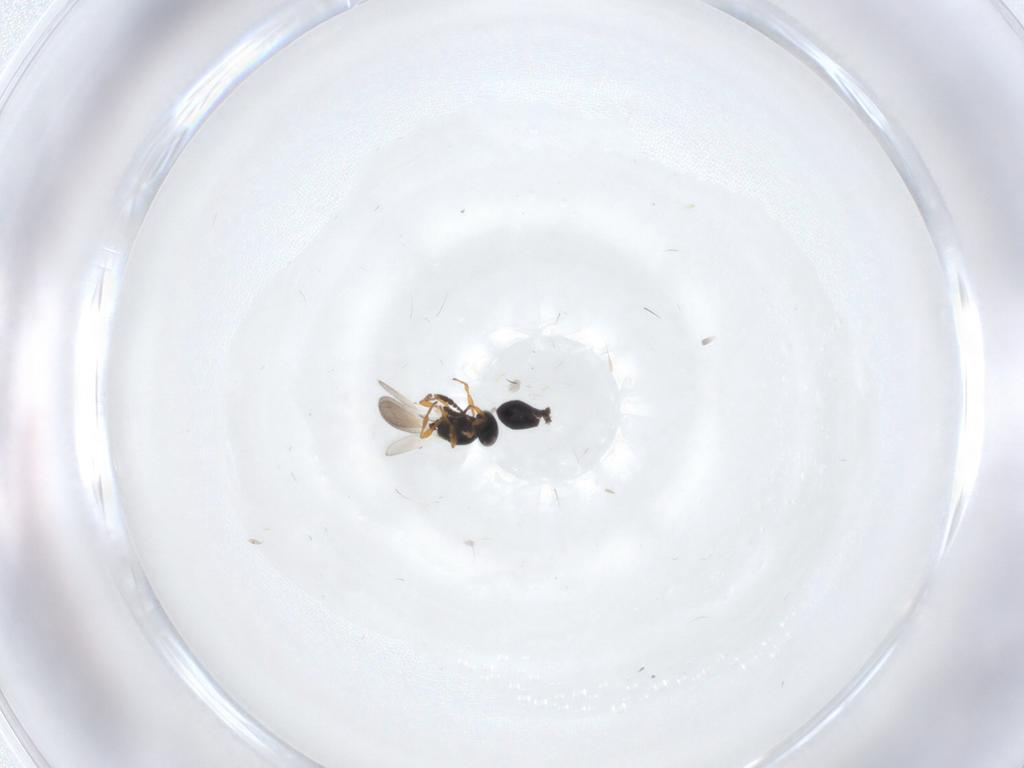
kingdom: Animalia
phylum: Arthropoda
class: Insecta
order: Hymenoptera
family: Platygastridae
